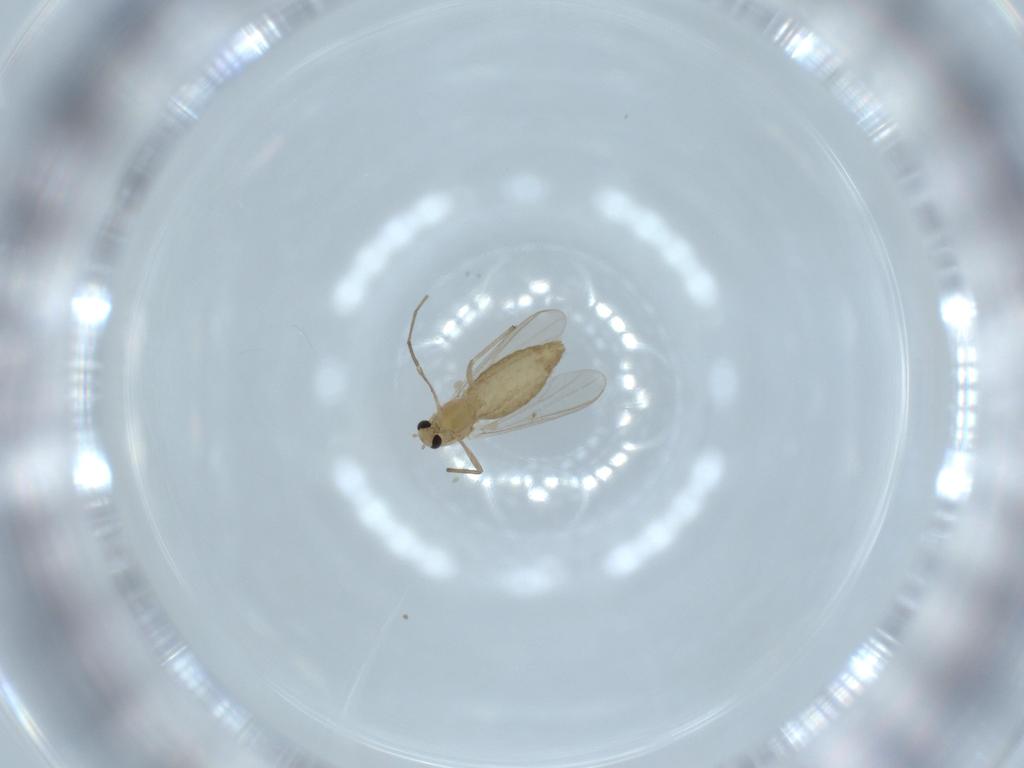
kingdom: Animalia
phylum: Arthropoda
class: Insecta
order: Diptera
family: Chironomidae
